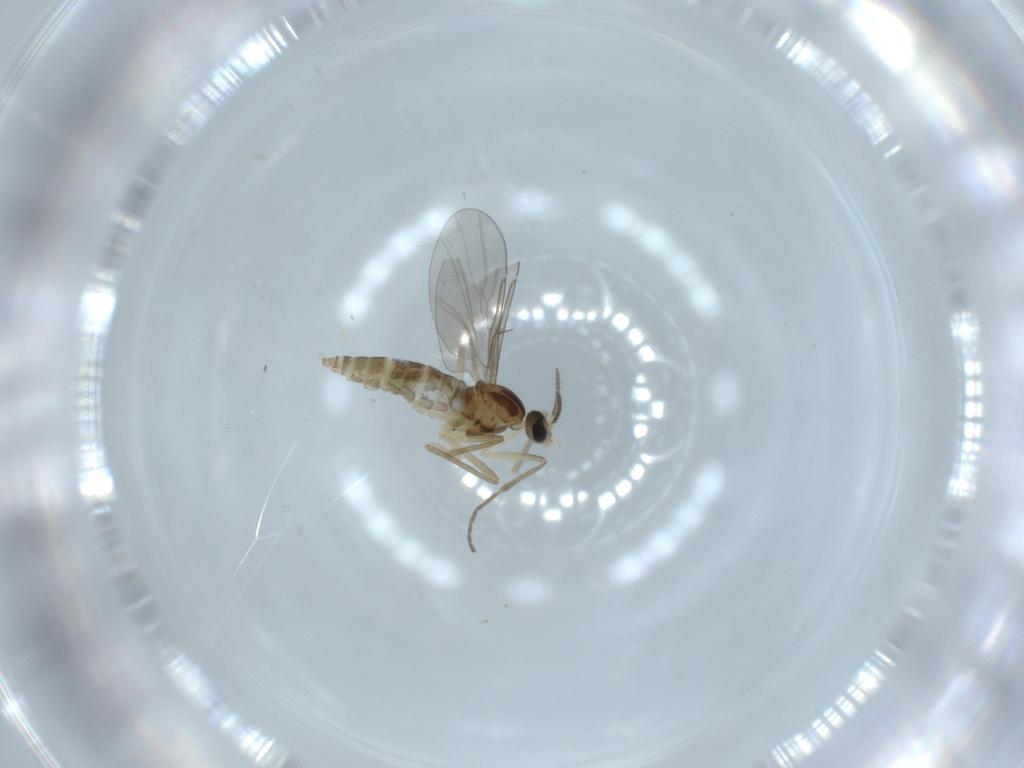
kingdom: Animalia
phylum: Arthropoda
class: Insecta
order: Diptera
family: Cecidomyiidae
